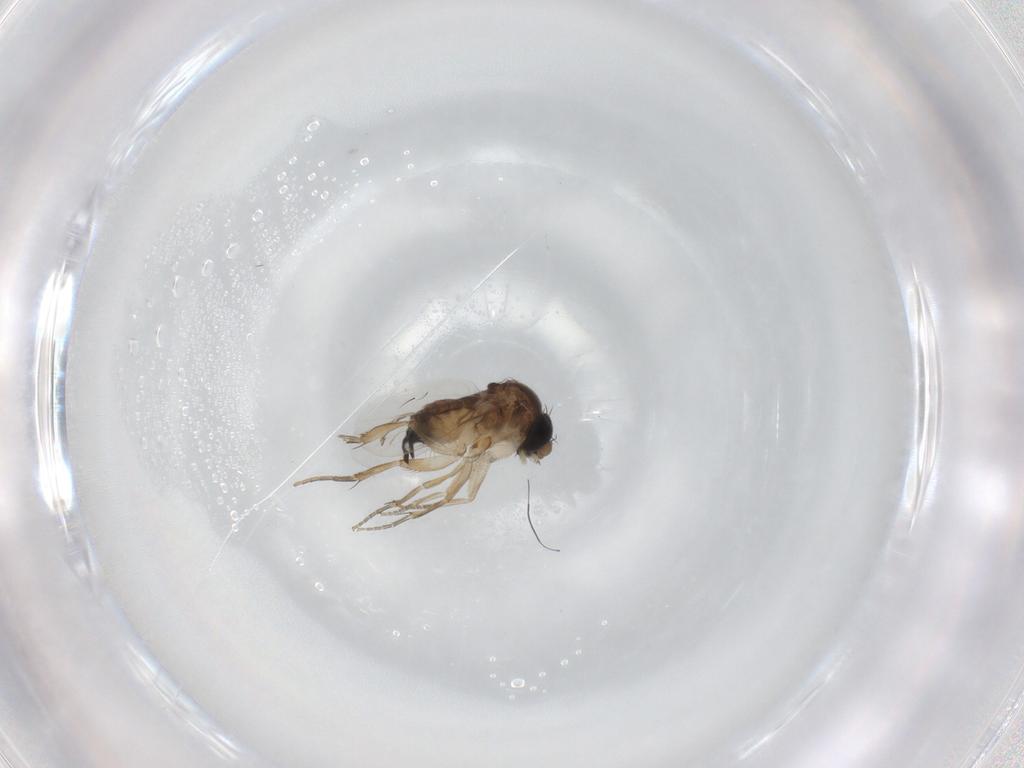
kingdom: Animalia
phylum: Arthropoda
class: Insecta
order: Diptera
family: Phoridae
